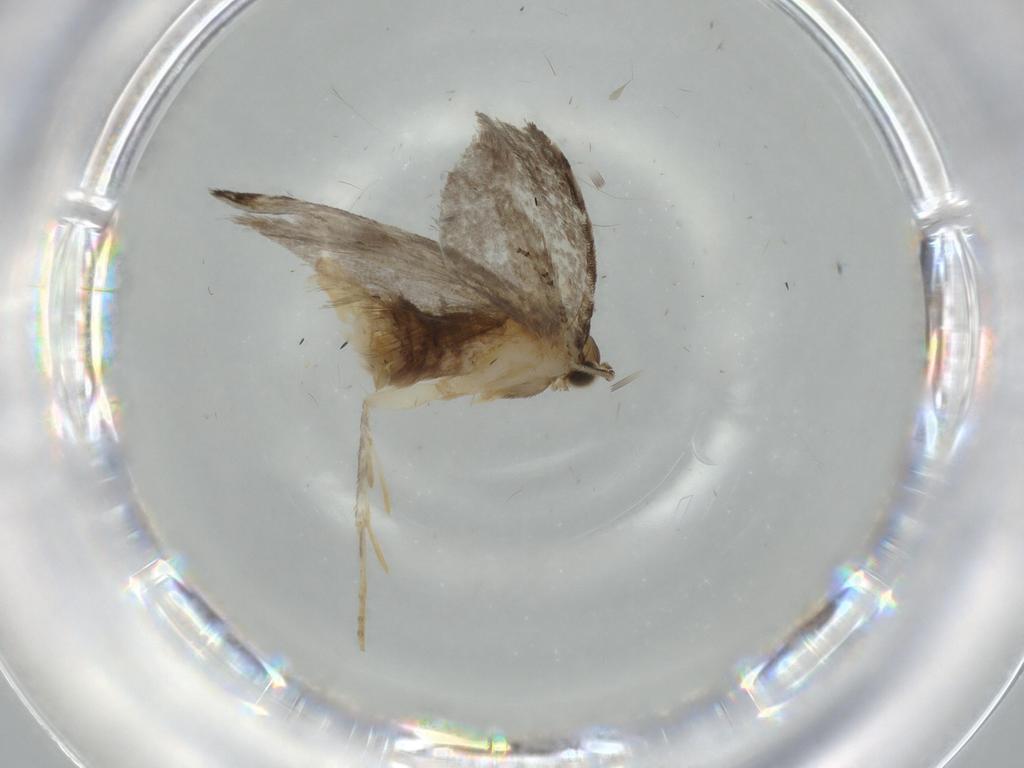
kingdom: Animalia
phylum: Arthropoda
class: Insecta
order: Lepidoptera
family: Tineidae
